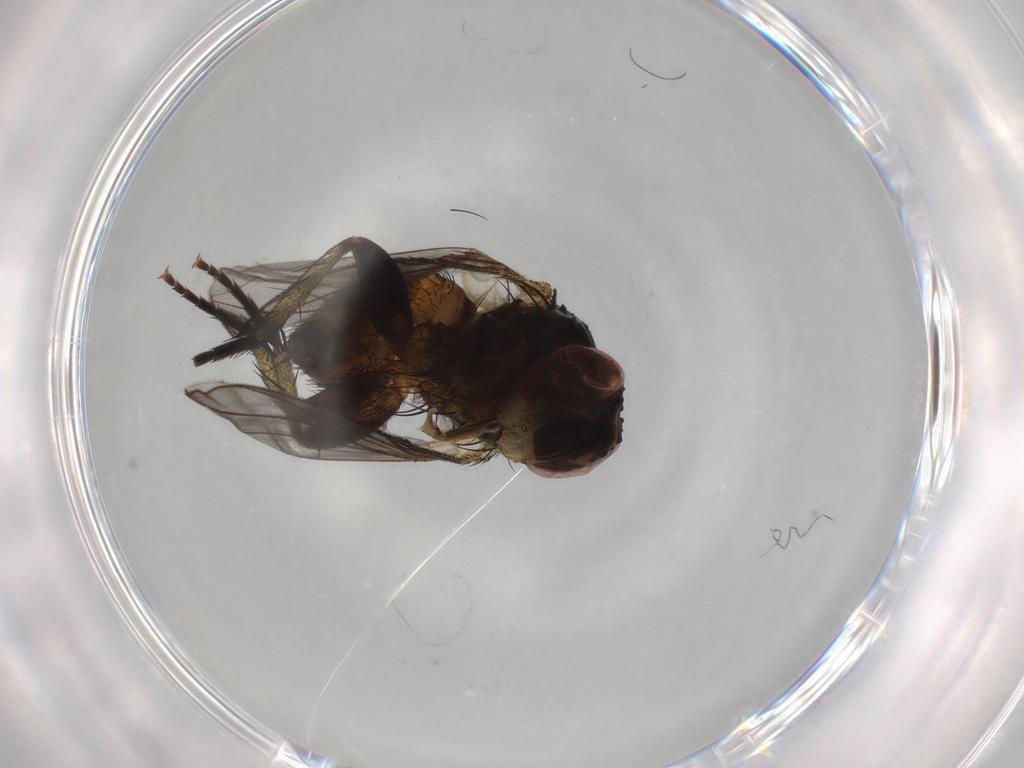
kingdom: Animalia
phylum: Arthropoda
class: Insecta
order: Diptera
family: Tachinidae
